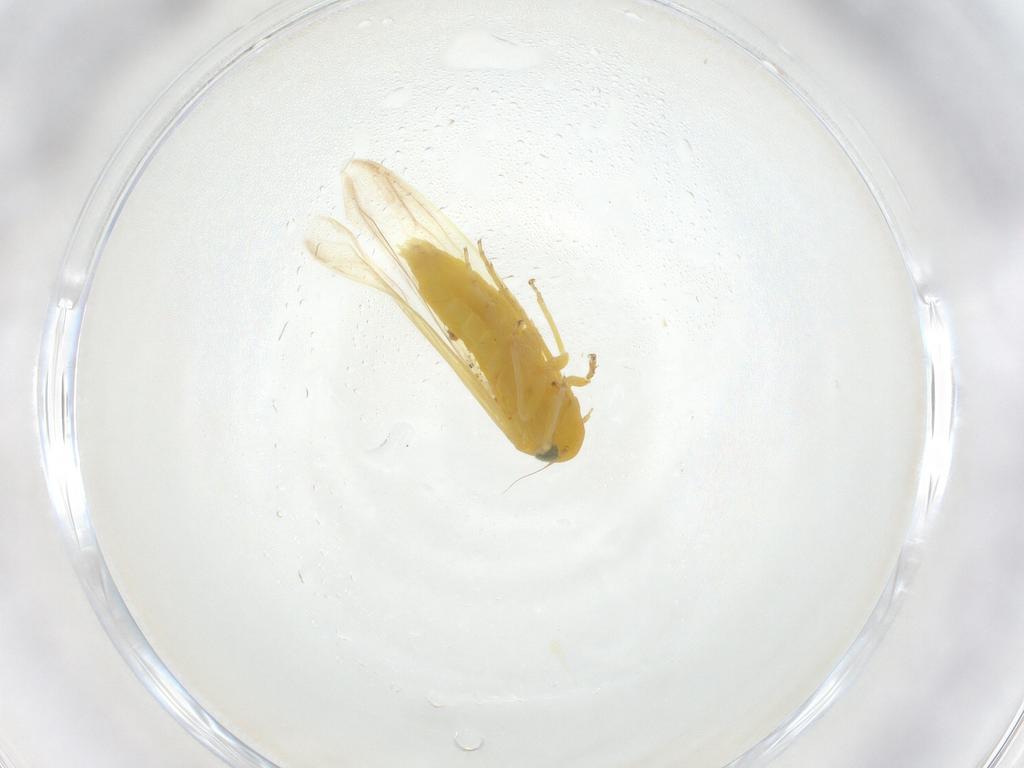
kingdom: Animalia
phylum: Arthropoda
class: Insecta
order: Hemiptera
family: Cicadellidae
